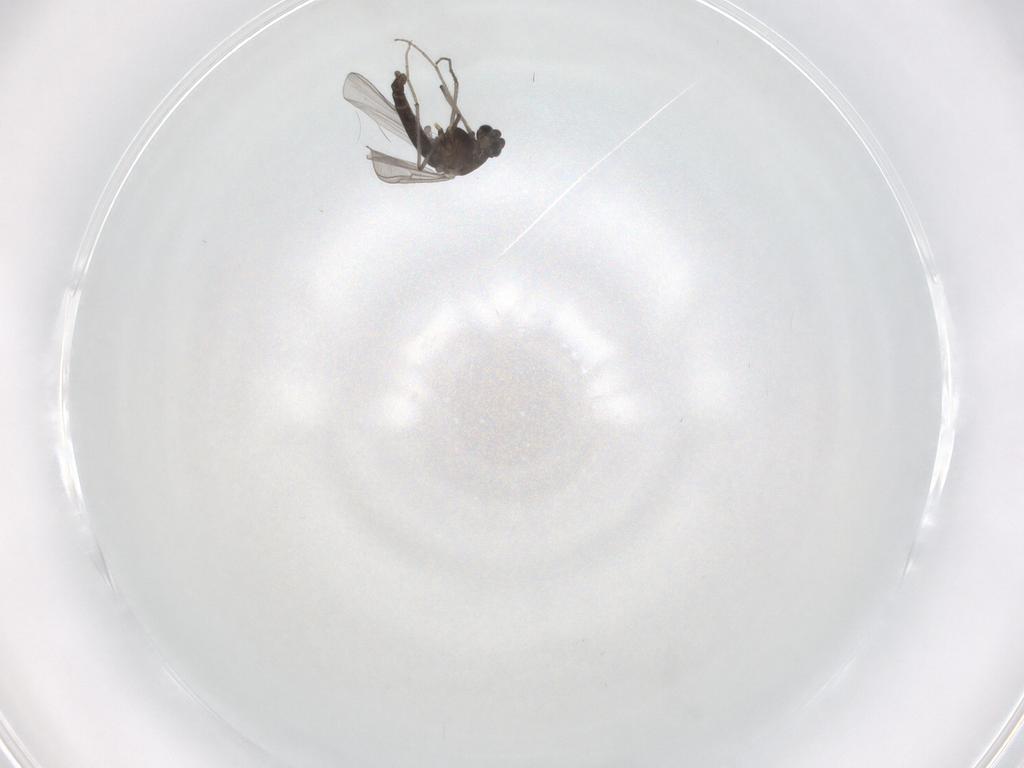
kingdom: Animalia
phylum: Arthropoda
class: Insecta
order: Diptera
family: Chironomidae
